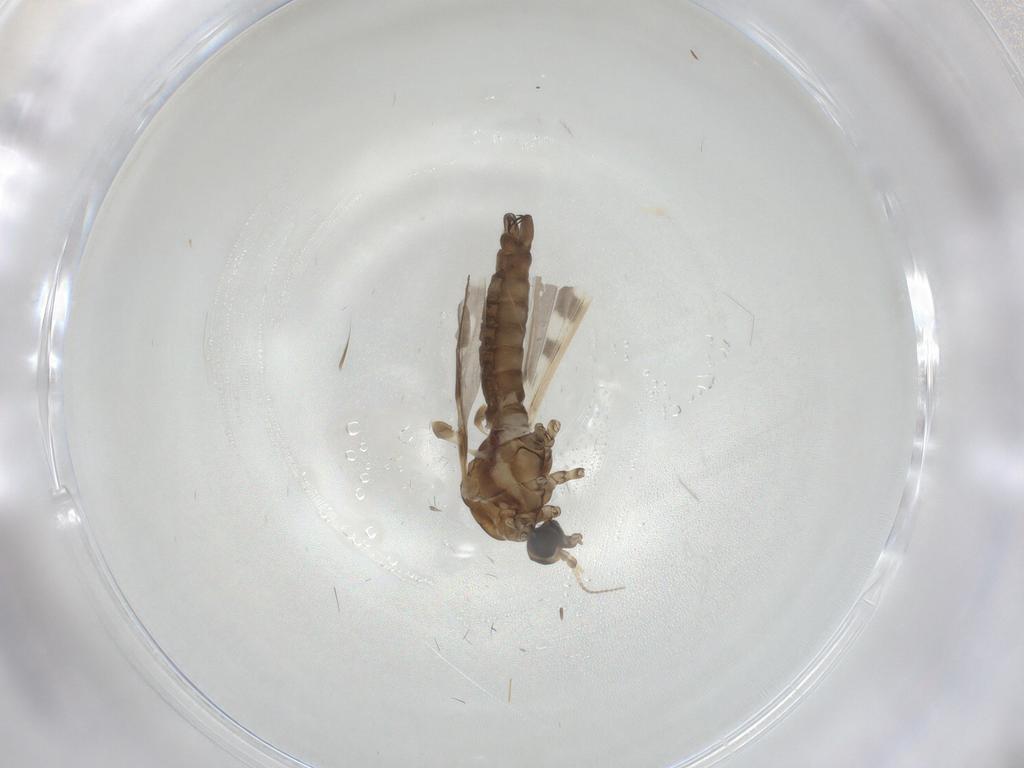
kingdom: Animalia
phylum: Arthropoda
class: Insecta
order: Diptera
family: Limoniidae
